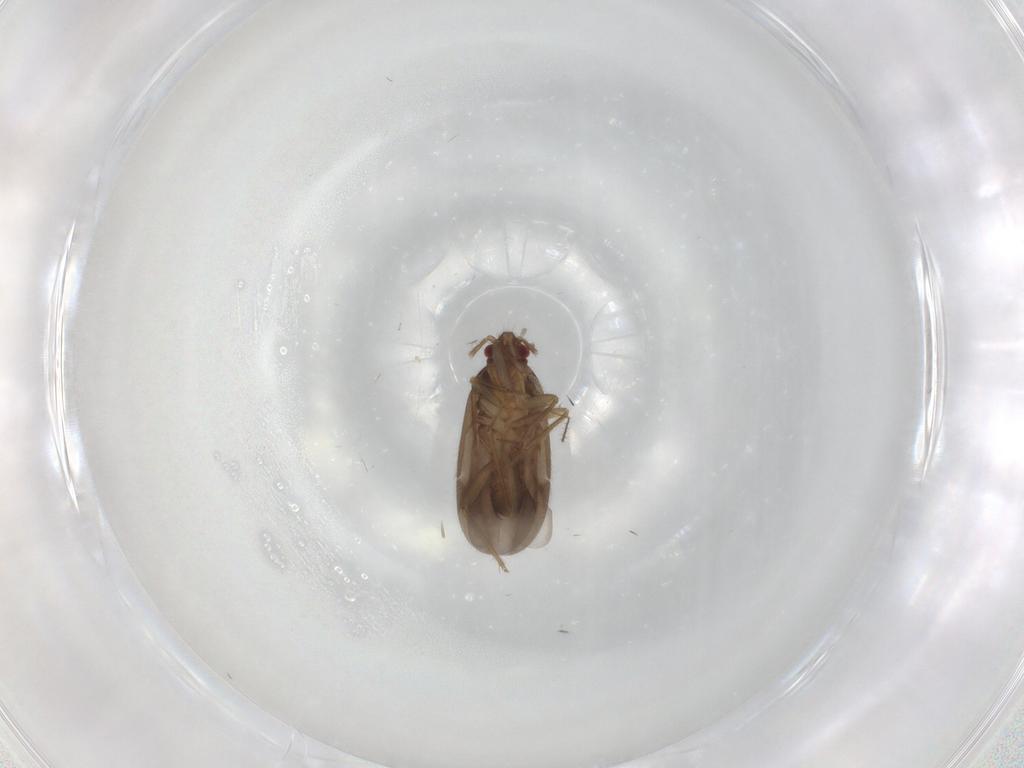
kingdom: Animalia
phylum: Arthropoda
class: Insecta
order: Hemiptera
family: Ceratocombidae
